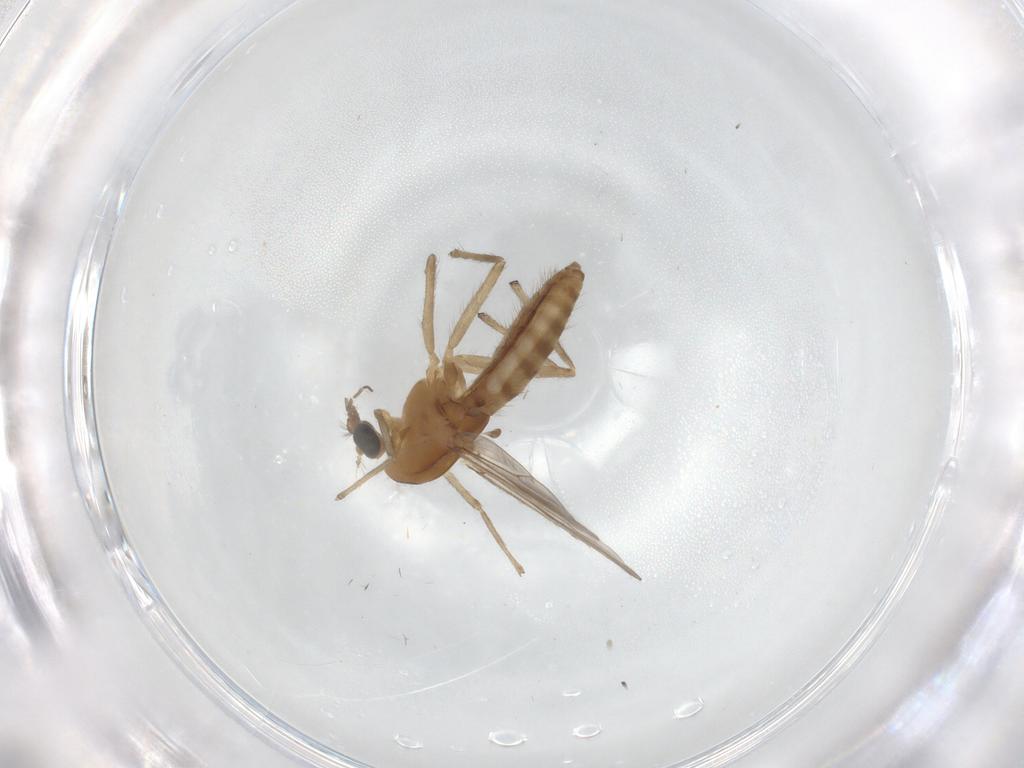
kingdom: Animalia
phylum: Arthropoda
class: Insecta
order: Diptera
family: Chironomidae
